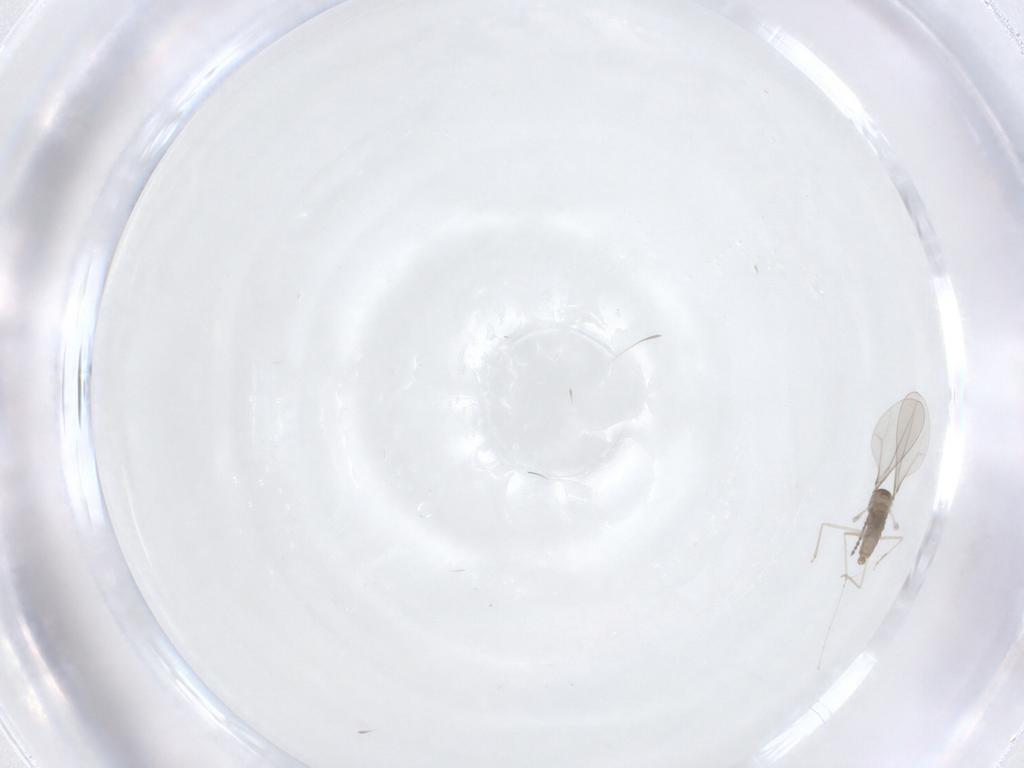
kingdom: Animalia
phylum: Arthropoda
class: Insecta
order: Diptera
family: Cecidomyiidae
